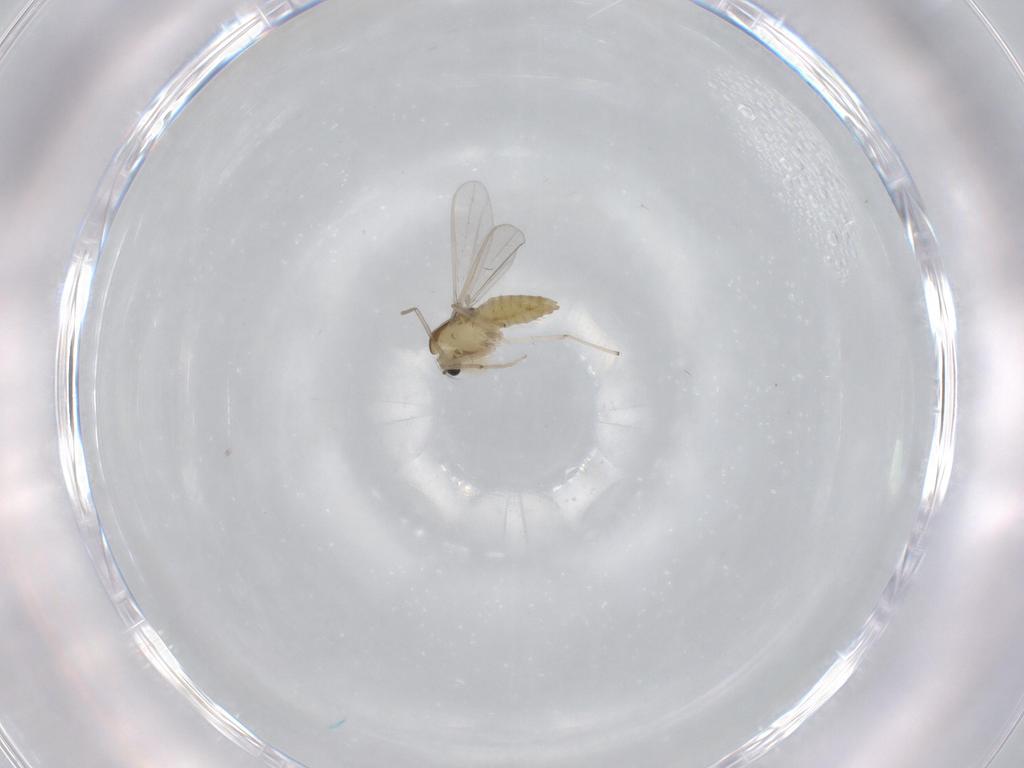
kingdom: Animalia
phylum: Arthropoda
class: Insecta
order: Diptera
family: Chironomidae
